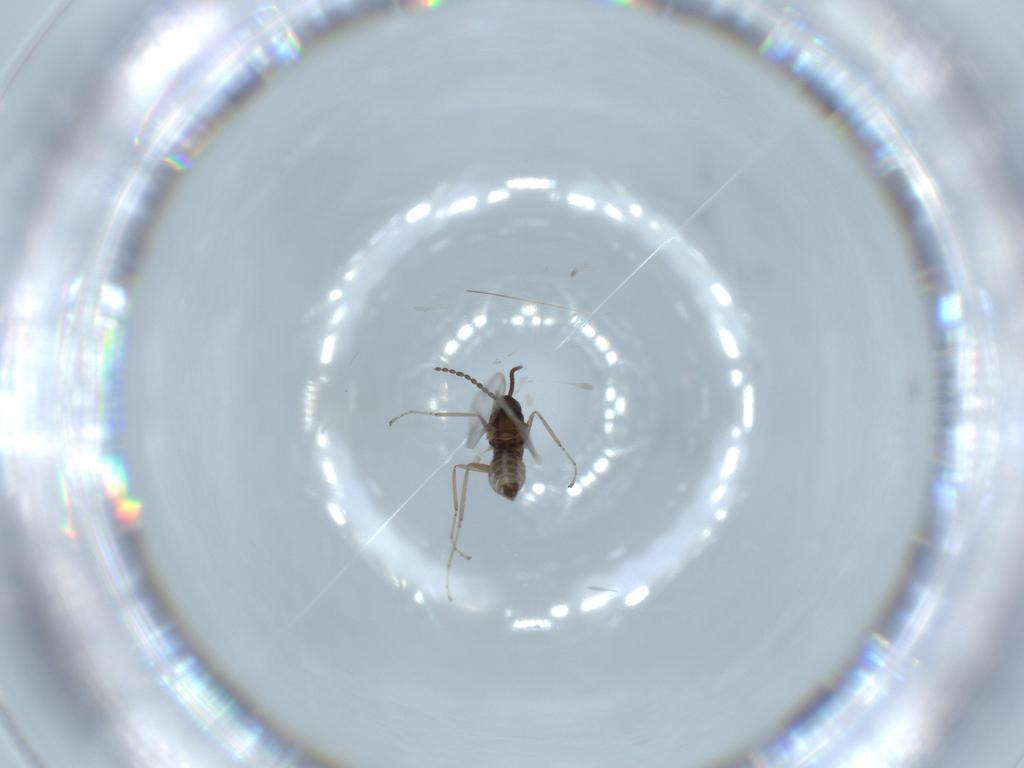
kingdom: Animalia
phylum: Arthropoda
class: Insecta
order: Diptera
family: Cecidomyiidae
